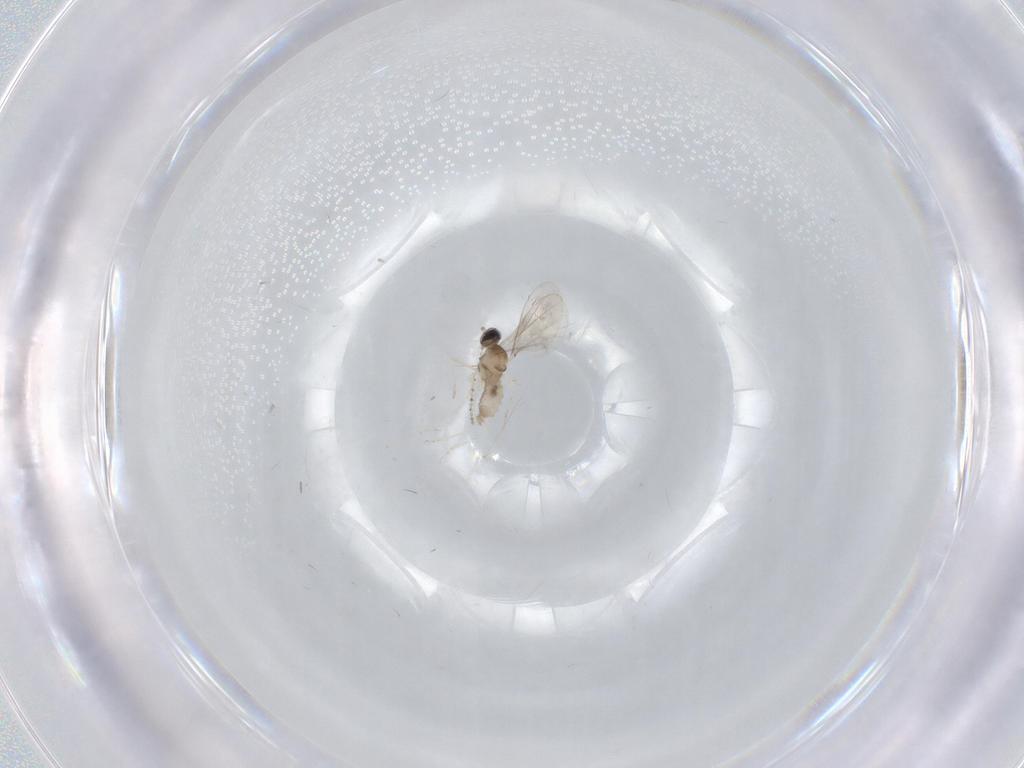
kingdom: Animalia
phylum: Arthropoda
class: Insecta
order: Diptera
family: Cecidomyiidae
